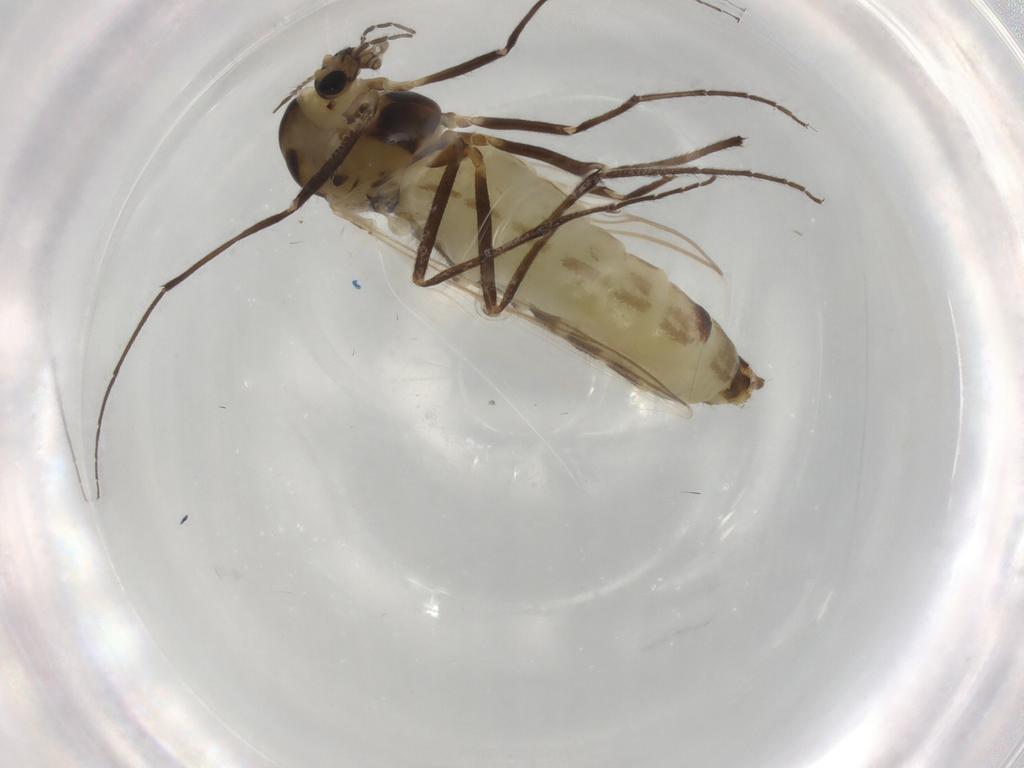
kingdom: Animalia
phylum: Arthropoda
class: Insecta
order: Diptera
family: Chironomidae
